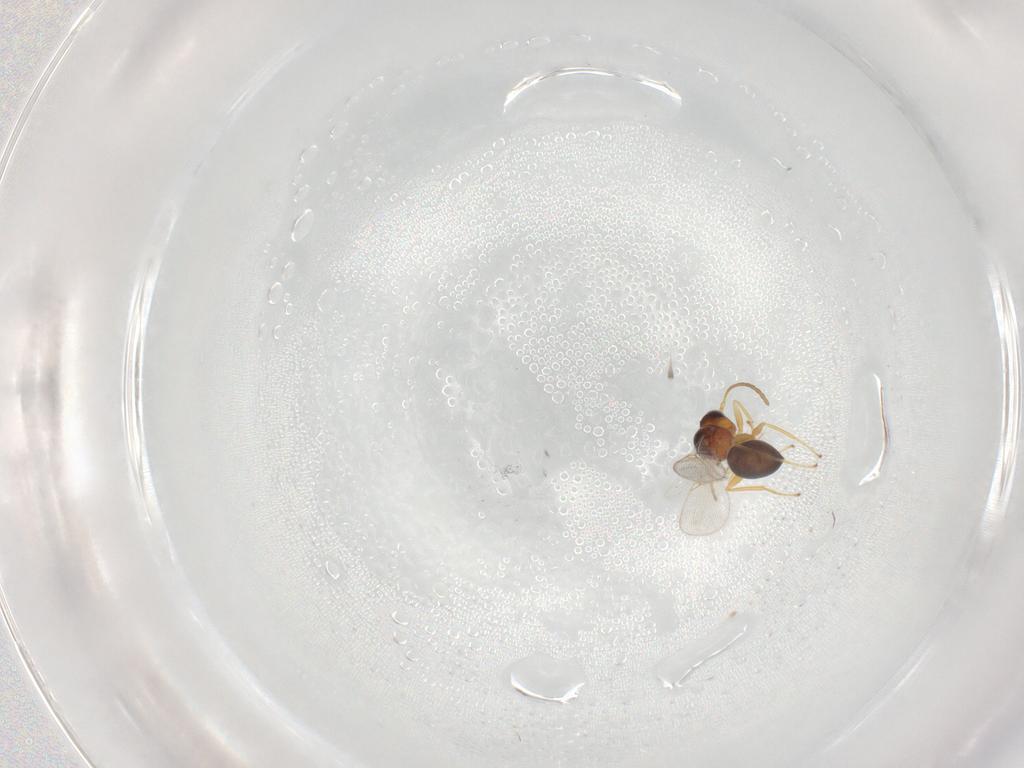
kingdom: Animalia
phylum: Arthropoda
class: Insecta
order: Hymenoptera
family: Figitidae
